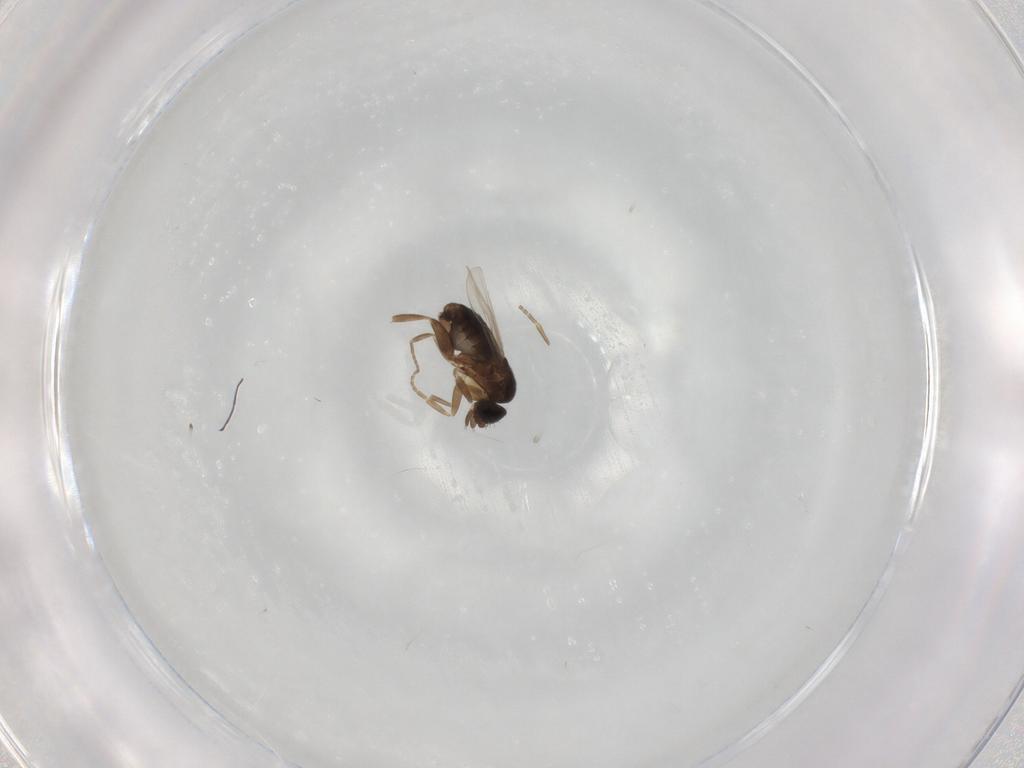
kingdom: Animalia
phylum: Arthropoda
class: Insecta
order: Diptera
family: Phoridae
